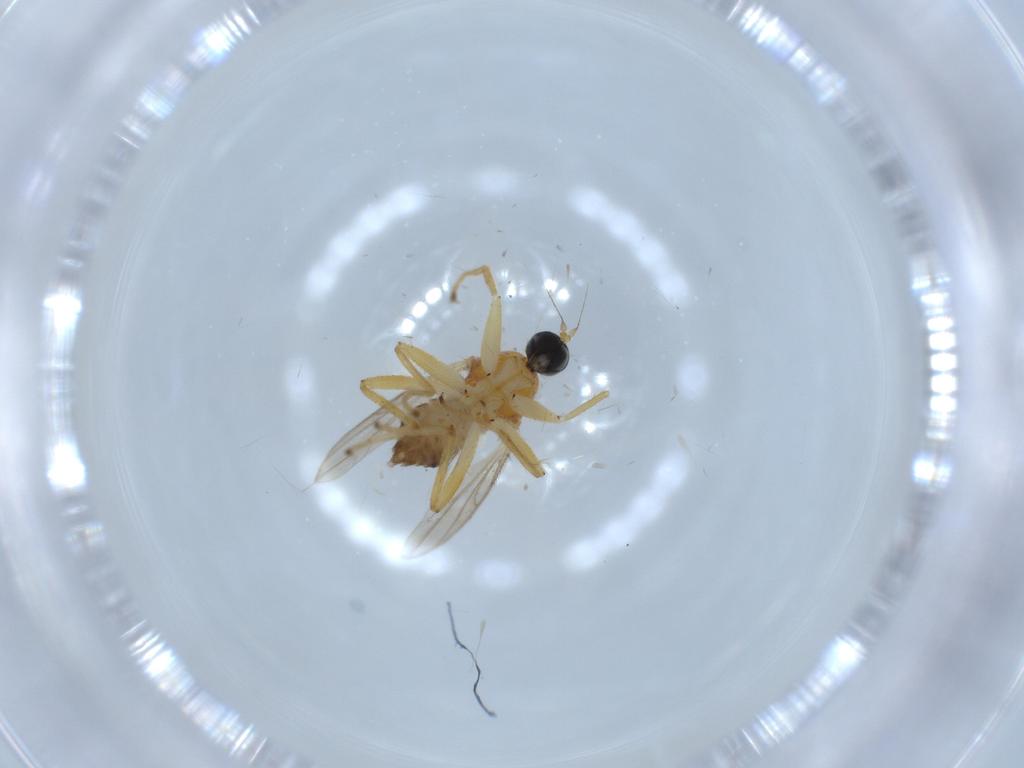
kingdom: Animalia
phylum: Arthropoda
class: Insecta
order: Diptera
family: Hybotidae
